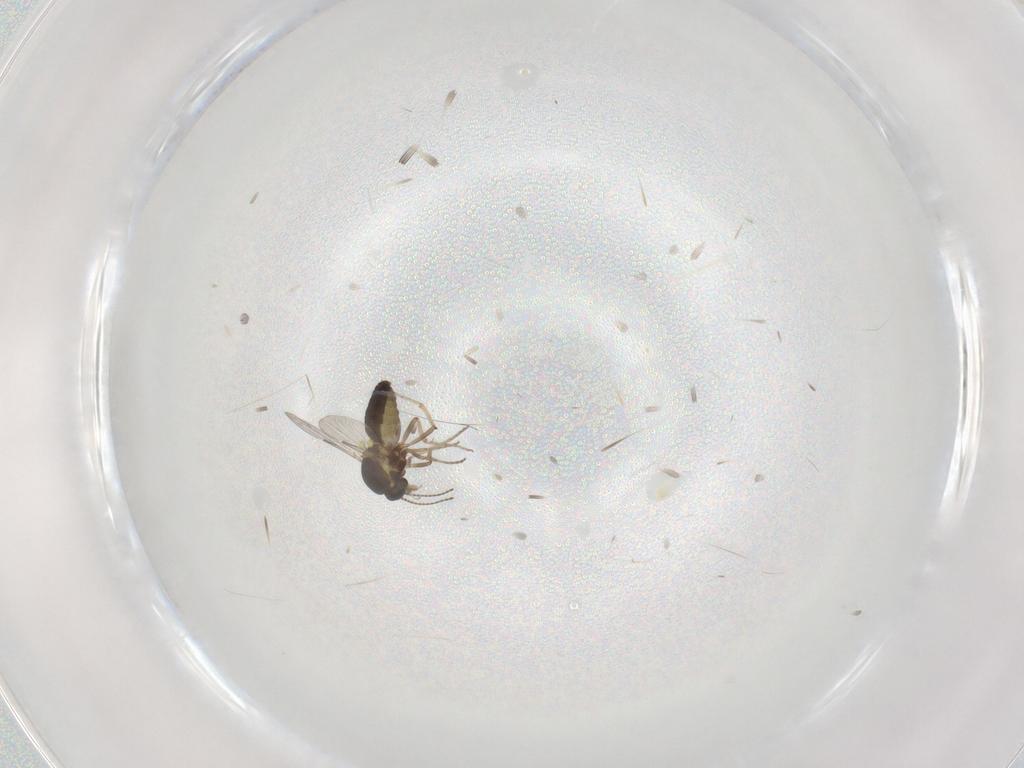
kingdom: Animalia
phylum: Arthropoda
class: Insecta
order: Diptera
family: Ceratopogonidae
